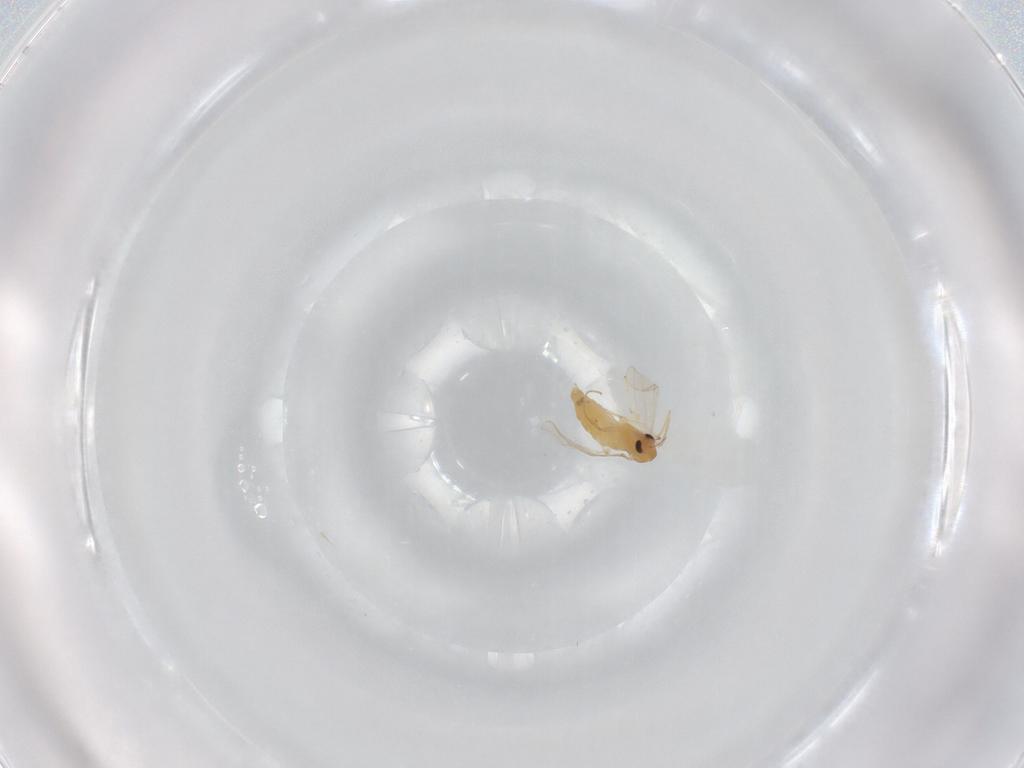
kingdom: Animalia
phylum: Arthropoda
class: Insecta
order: Diptera
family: Chironomidae
